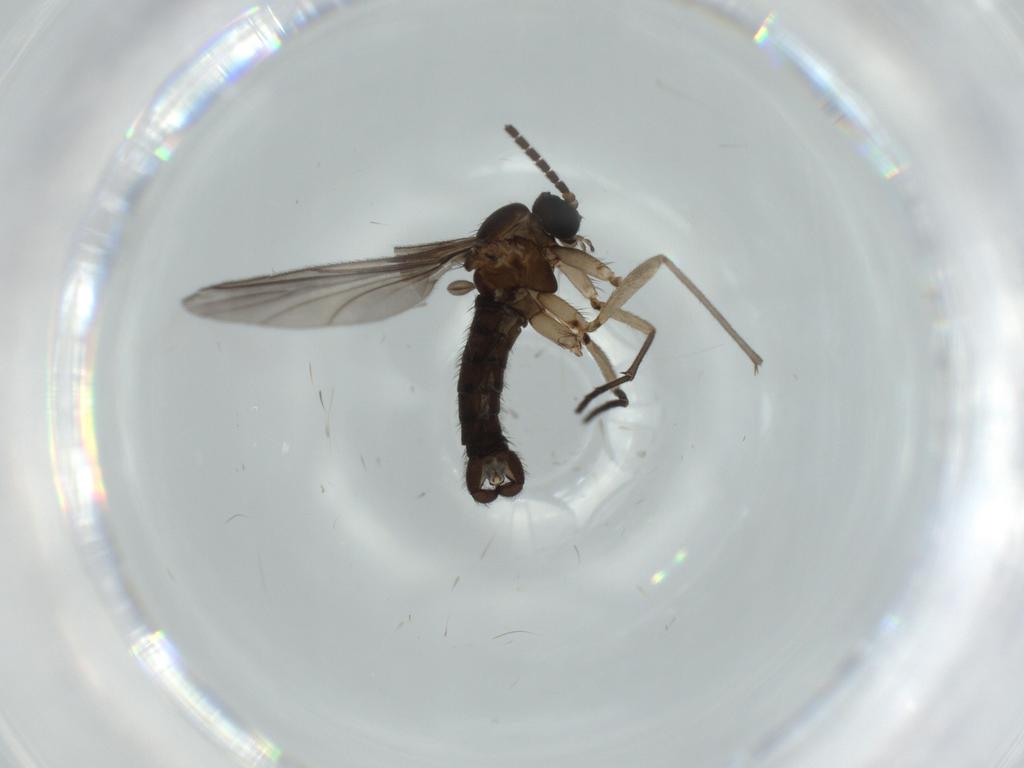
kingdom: Animalia
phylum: Arthropoda
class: Insecta
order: Diptera
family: Sciaridae
